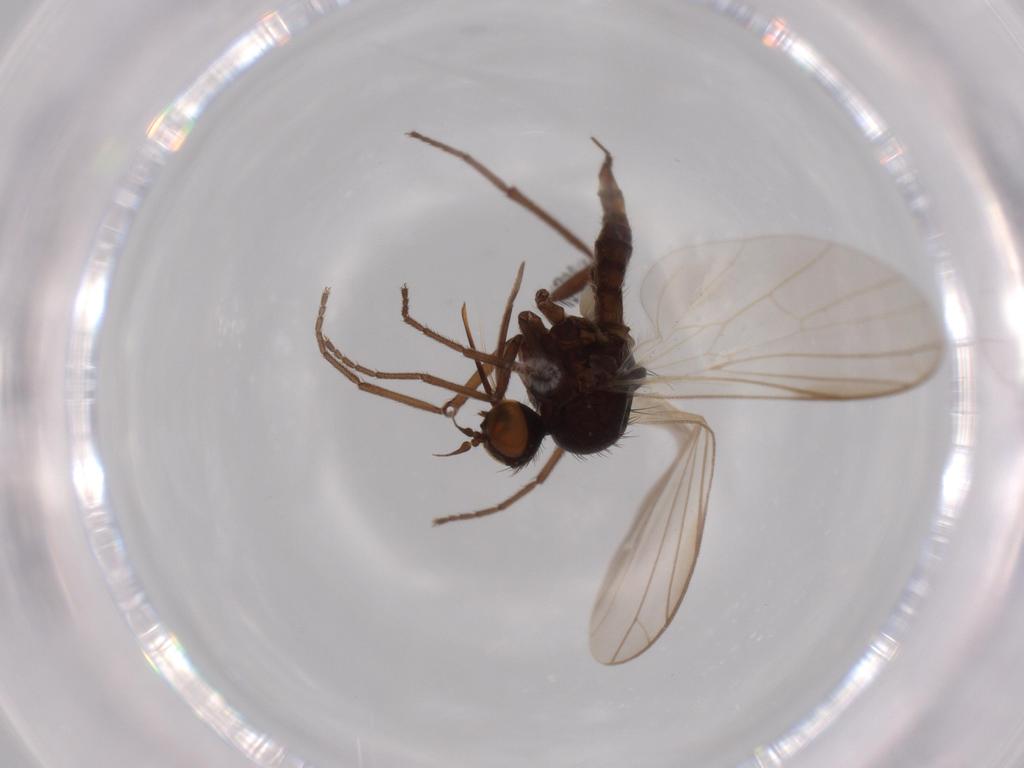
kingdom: Animalia
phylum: Arthropoda
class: Insecta
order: Diptera
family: Empididae
